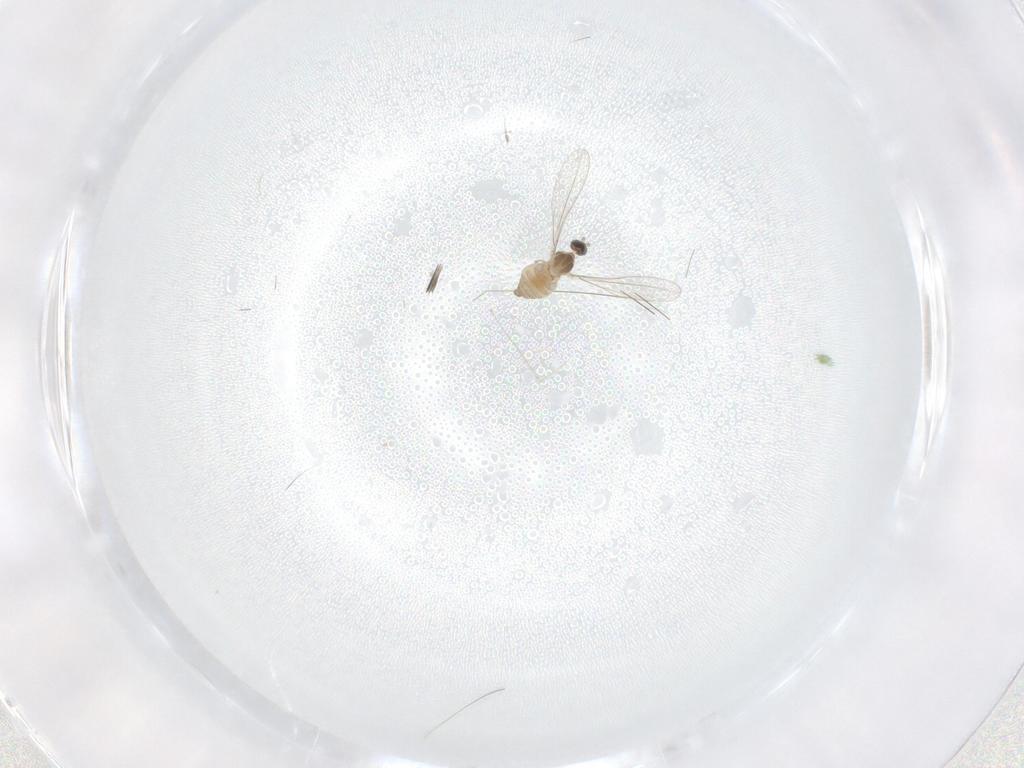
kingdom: Animalia
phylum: Arthropoda
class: Insecta
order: Diptera
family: Cecidomyiidae
